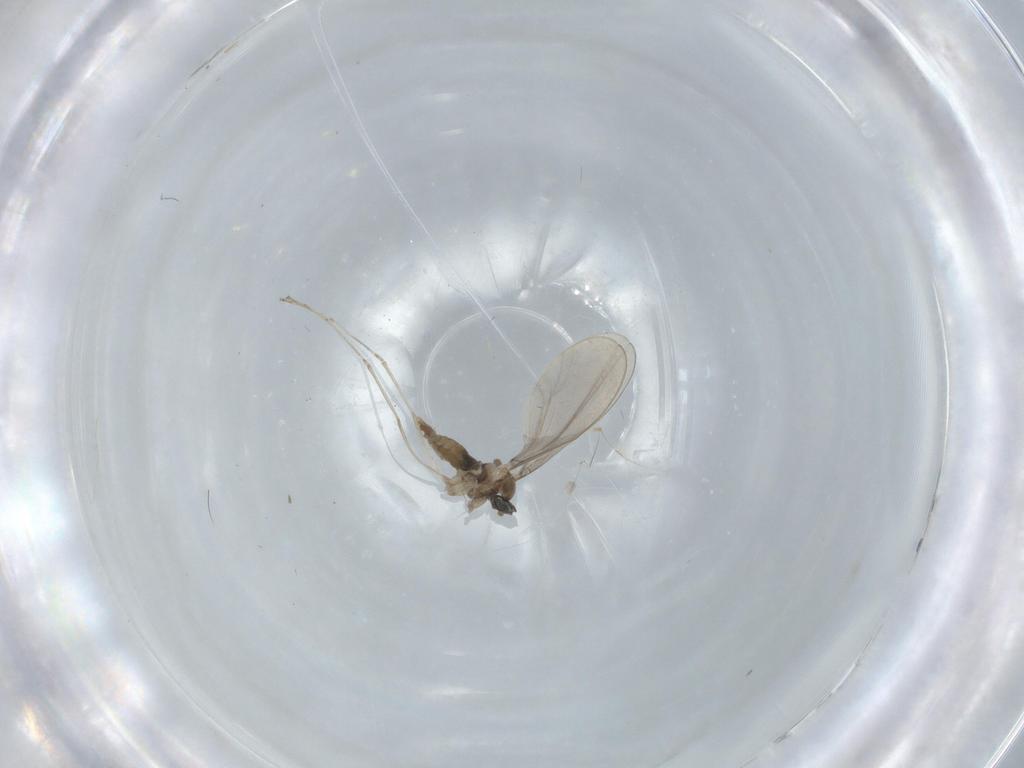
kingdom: Animalia
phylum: Arthropoda
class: Insecta
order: Diptera
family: Cecidomyiidae
